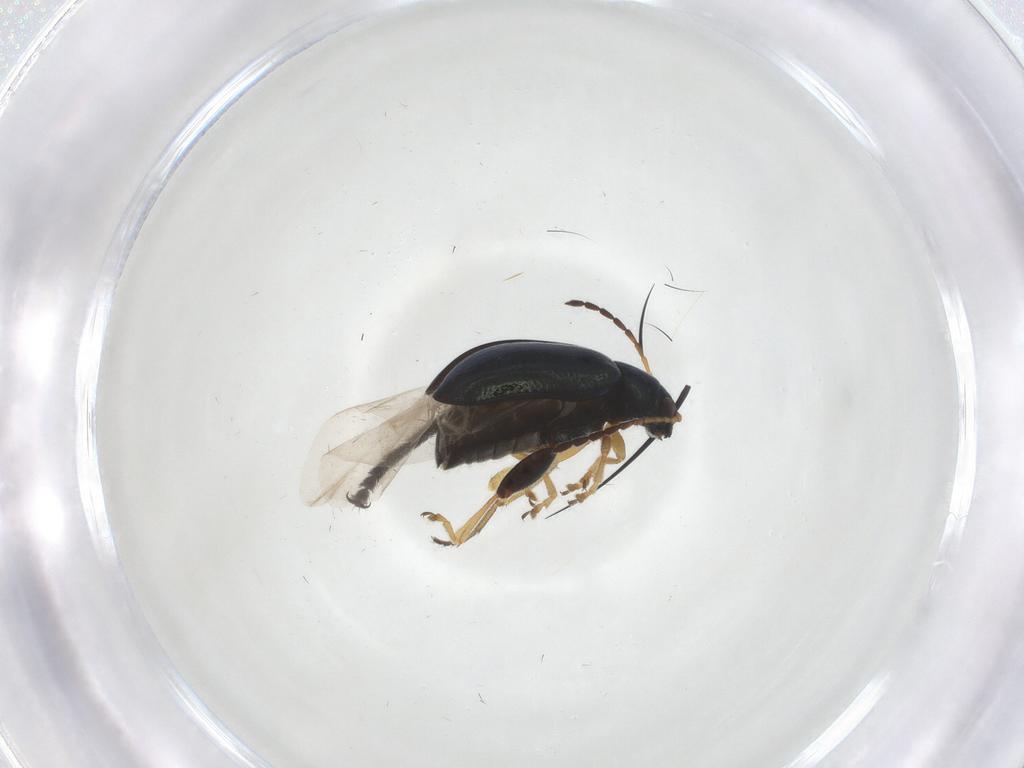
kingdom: Animalia
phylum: Arthropoda
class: Insecta
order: Coleoptera
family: Chrysomelidae
